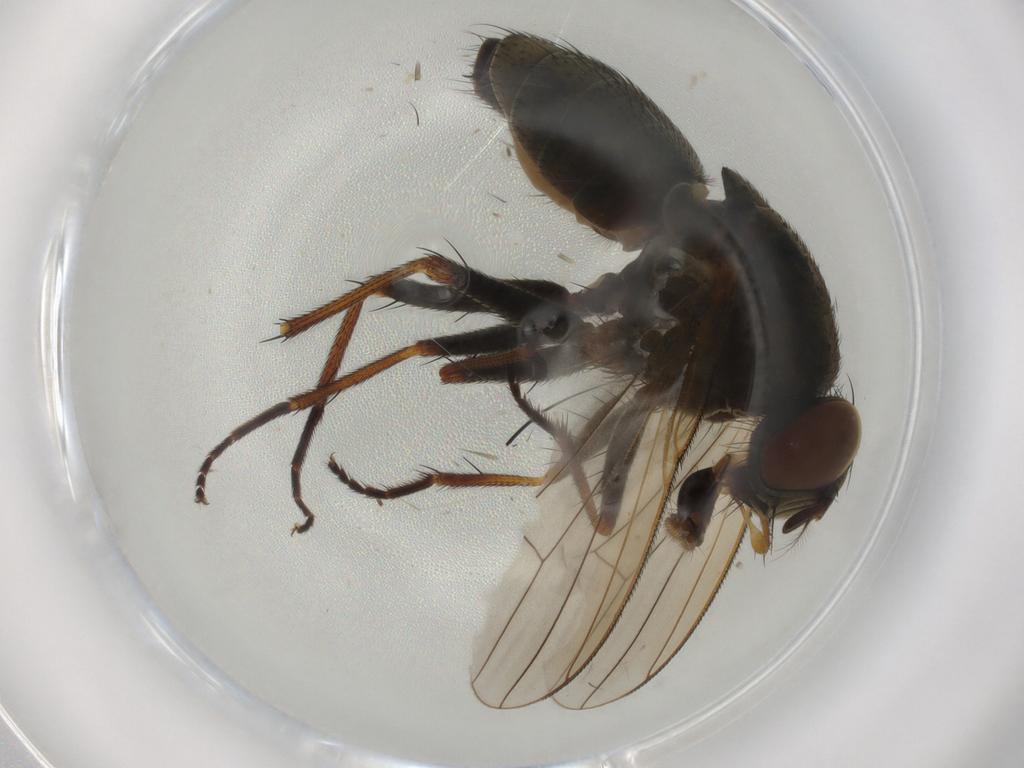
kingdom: Animalia
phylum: Arthropoda
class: Insecta
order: Diptera
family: Muscidae
